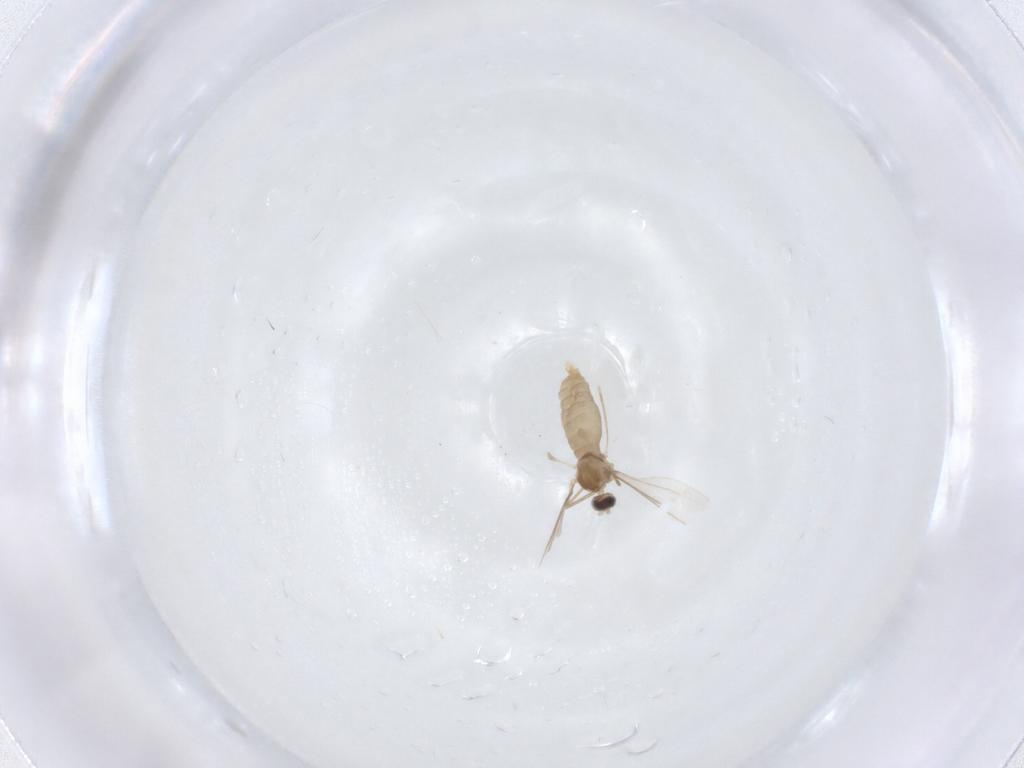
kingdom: Animalia
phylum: Arthropoda
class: Insecta
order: Diptera
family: Cecidomyiidae
